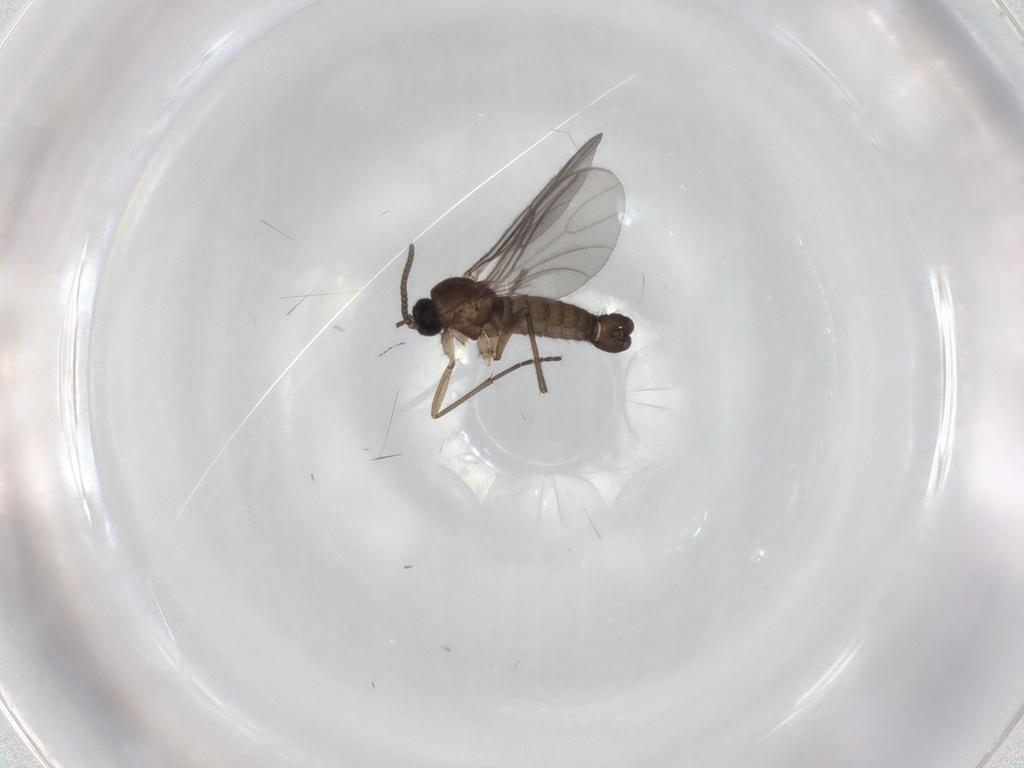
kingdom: Animalia
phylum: Arthropoda
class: Insecta
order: Diptera
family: Sciaridae
